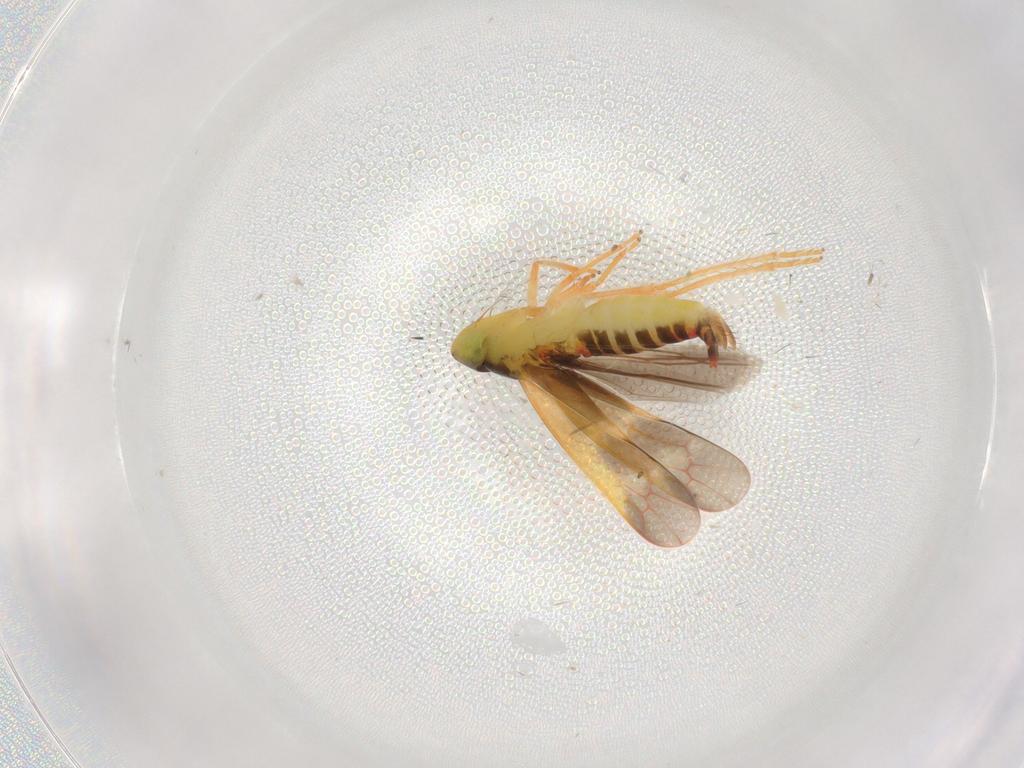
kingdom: Animalia
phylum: Arthropoda
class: Insecta
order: Hemiptera
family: Cicadellidae
